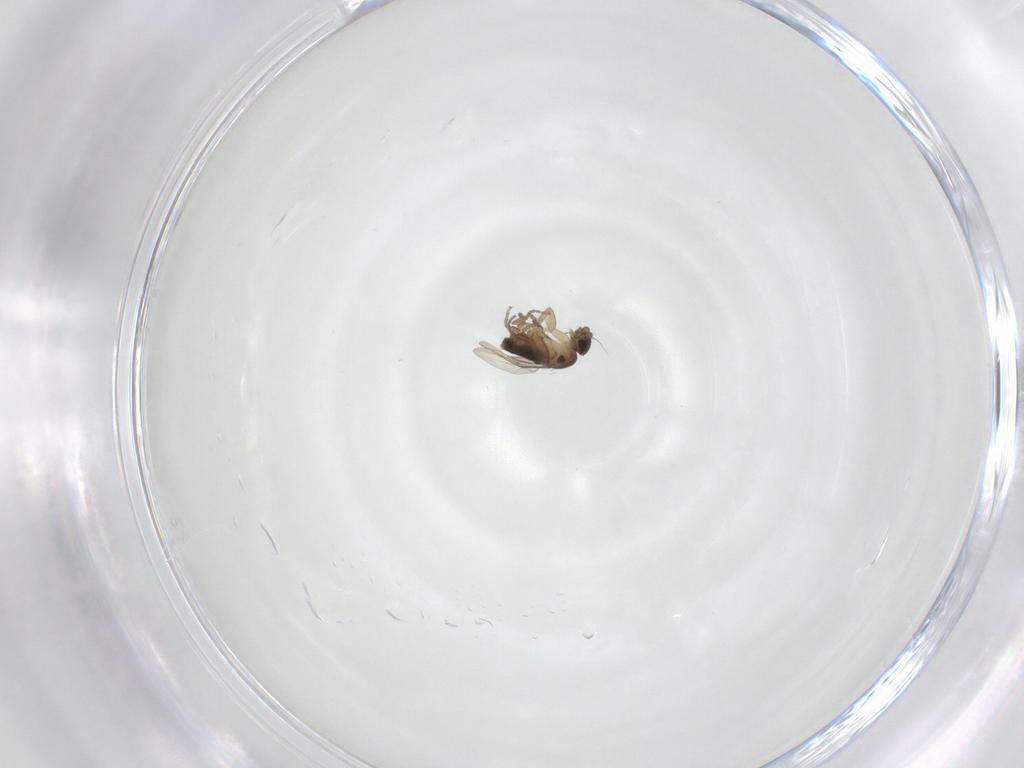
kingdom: Animalia
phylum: Arthropoda
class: Insecta
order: Diptera
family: Phoridae
